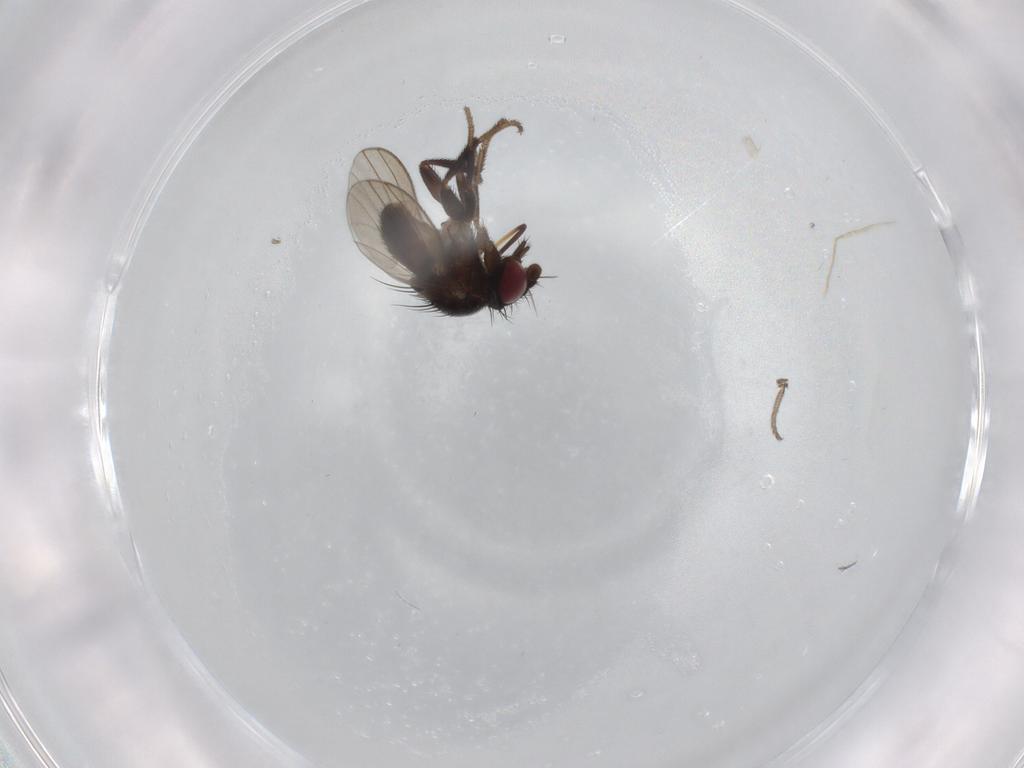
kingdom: Animalia
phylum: Arthropoda
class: Insecta
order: Diptera
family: Milichiidae
